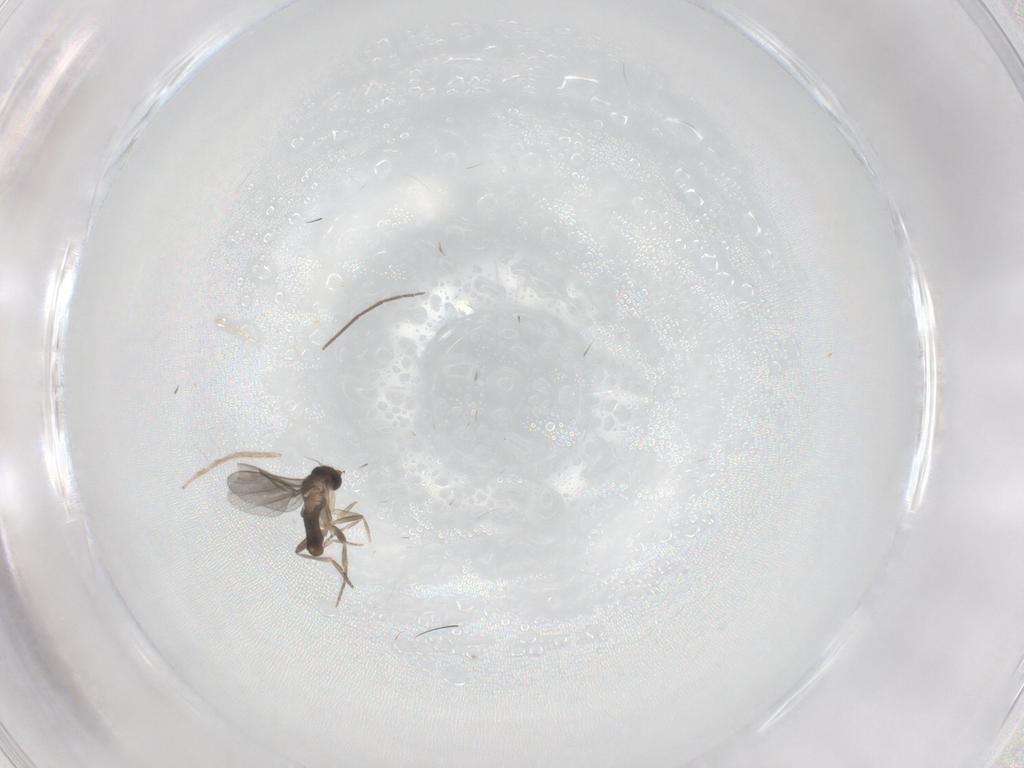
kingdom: Animalia
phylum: Arthropoda
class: Insecta
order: Diptera
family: Chironomidae
